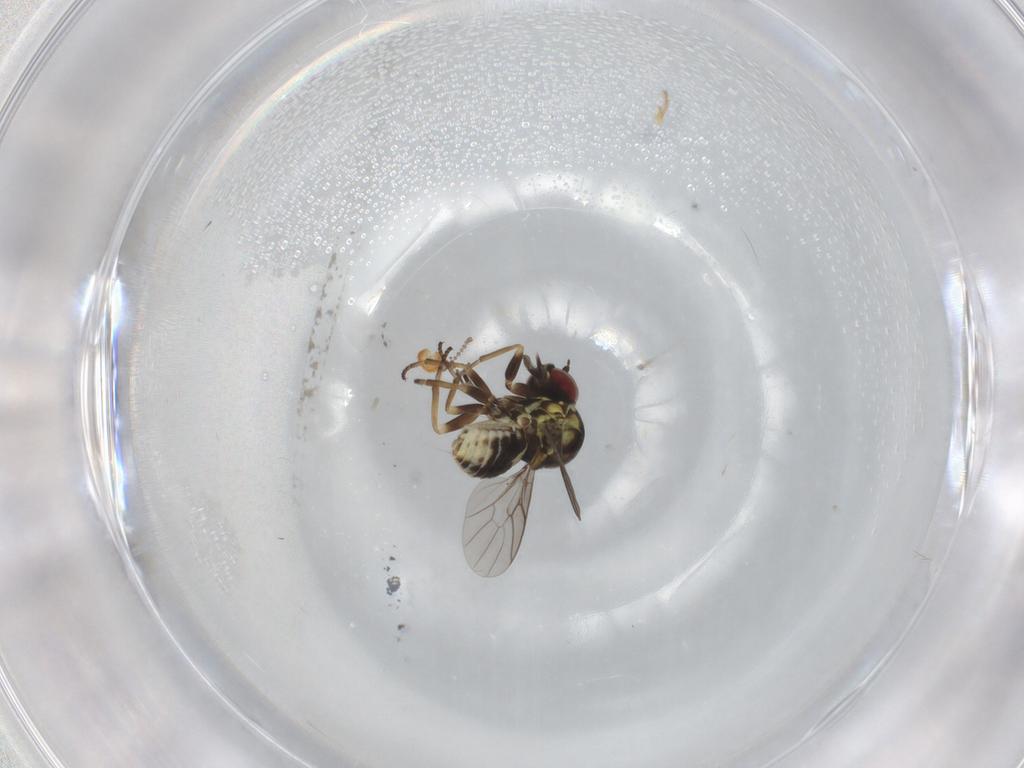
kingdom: Animalia
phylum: Arthropoda
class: Insecta
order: Diptera
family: Bombyliidae
